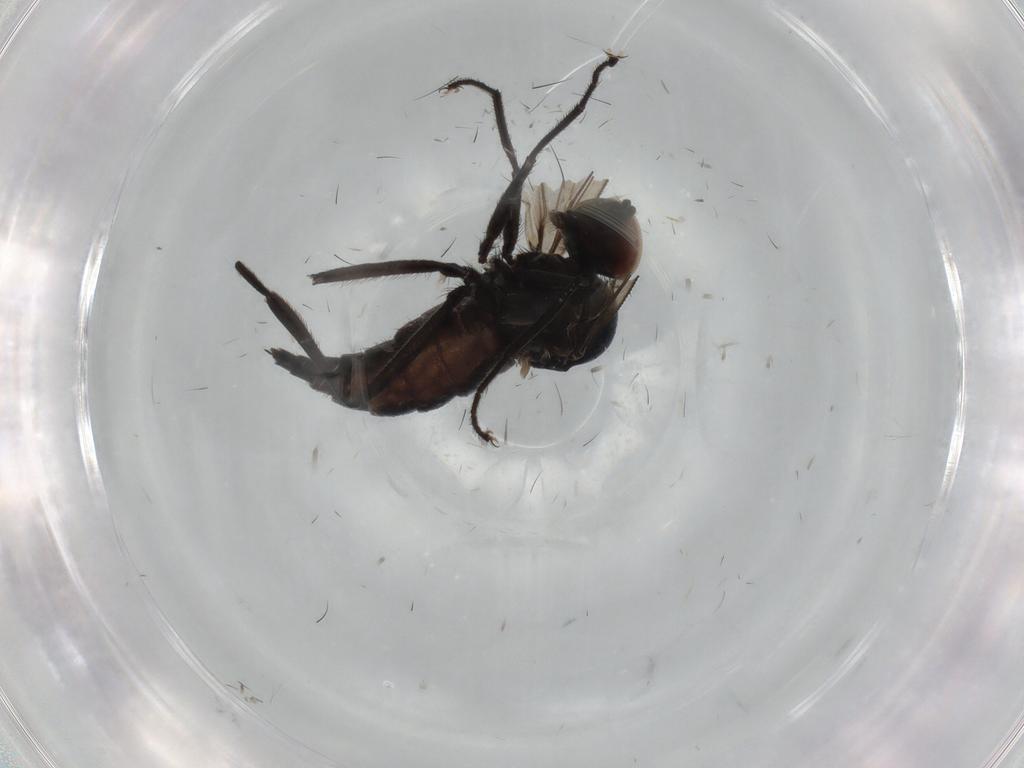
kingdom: Animalia
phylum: Arthropoda
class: Insecta
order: Diptera
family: Hybotidae
